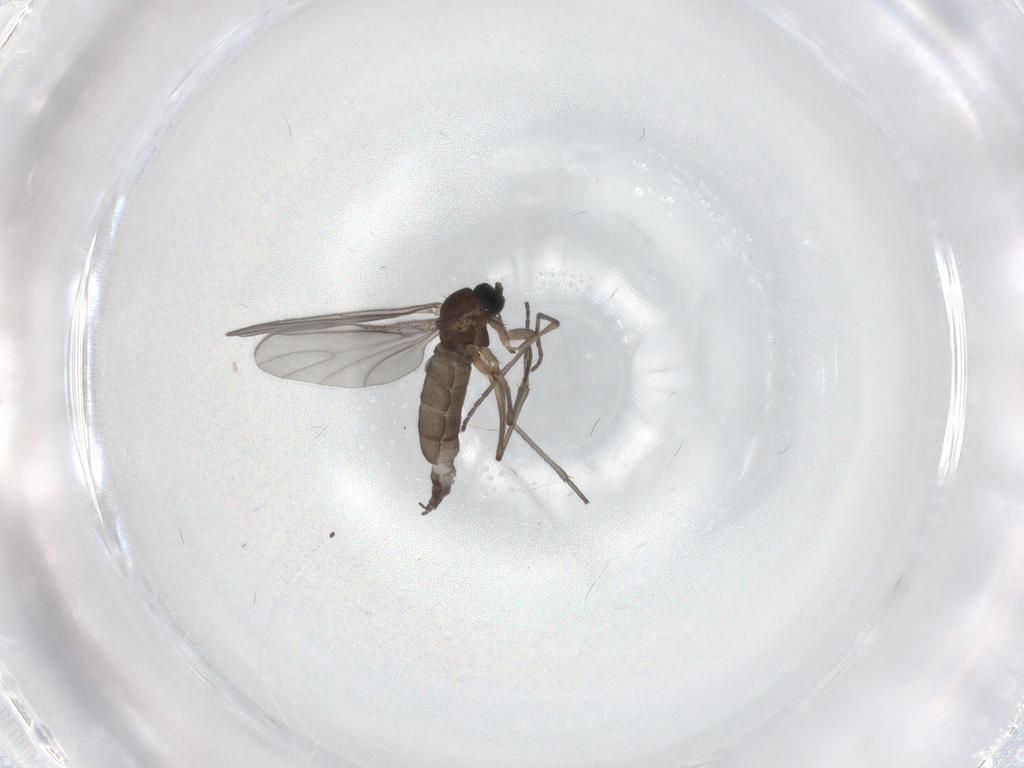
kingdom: Animalia
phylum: Arthropoda
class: Insecta
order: Diptera
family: Sciaridae
